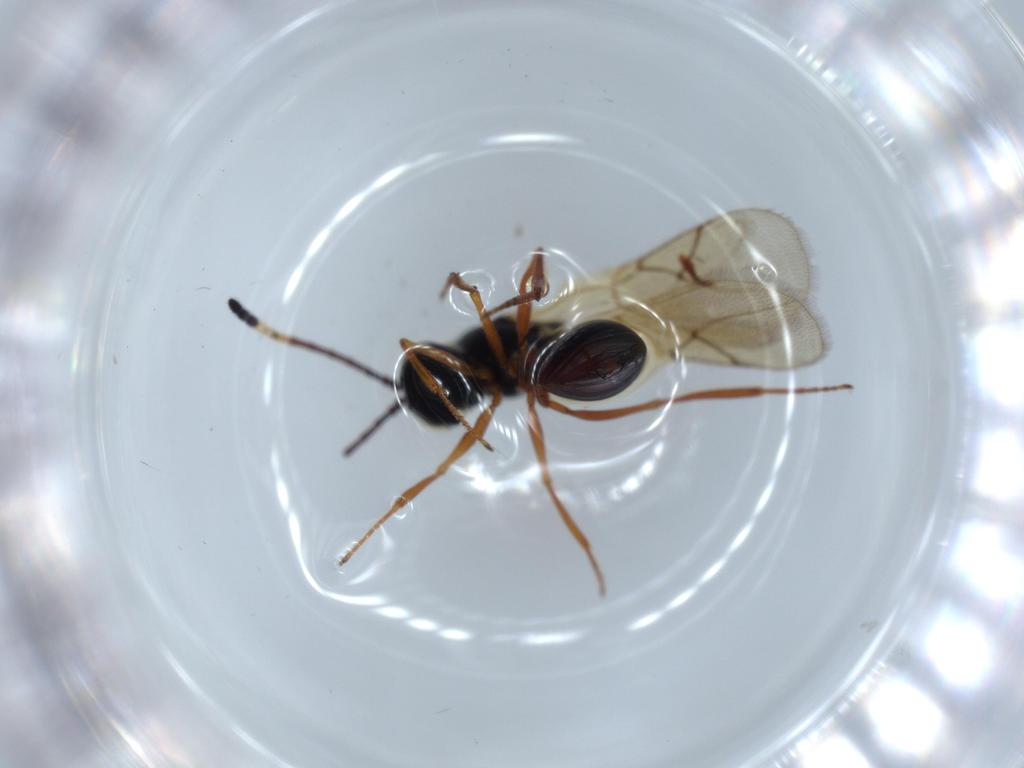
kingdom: Animalia
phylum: Arthropoda
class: Insecta
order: Hymenoptera
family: Figitidae
